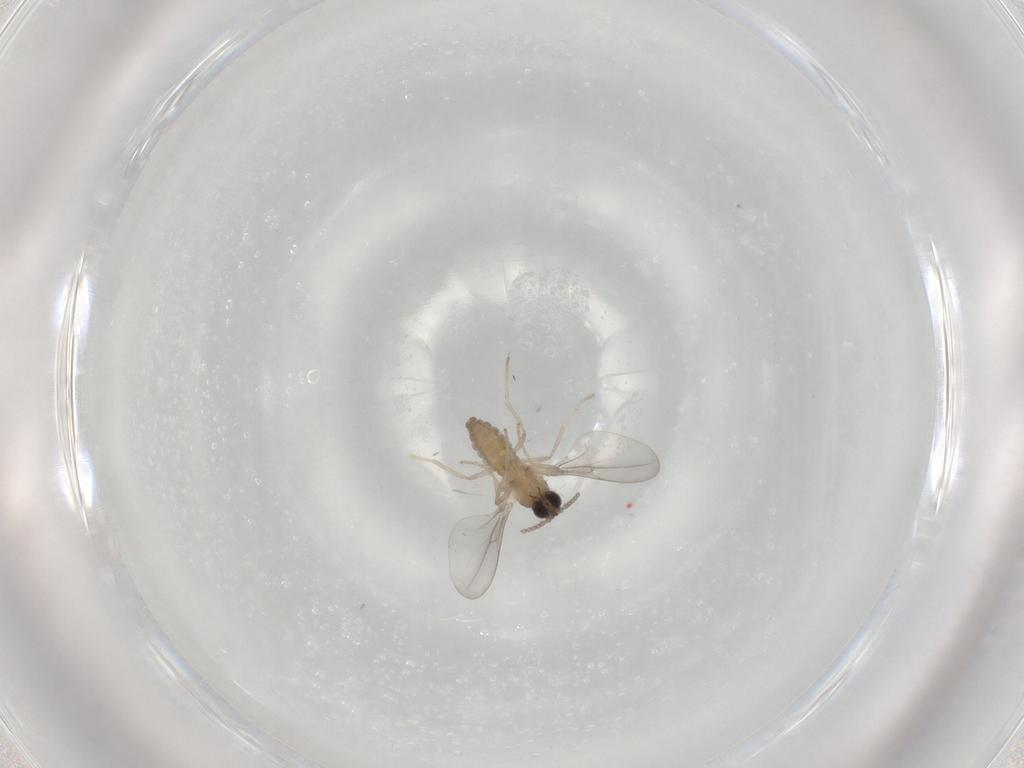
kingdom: Animalia
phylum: Arthropoda
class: Insecta
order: Diptera
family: Cecidomyiidae
